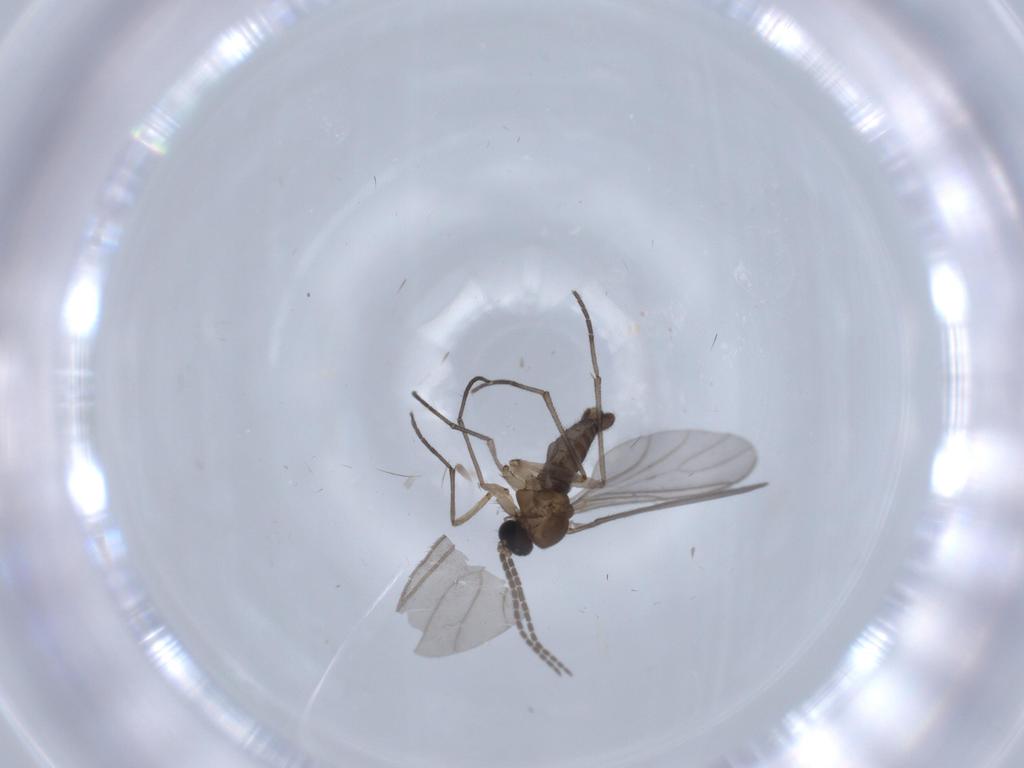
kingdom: Animalia
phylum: Arthropoda
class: Insecta
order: Diptera
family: Sciaridae
